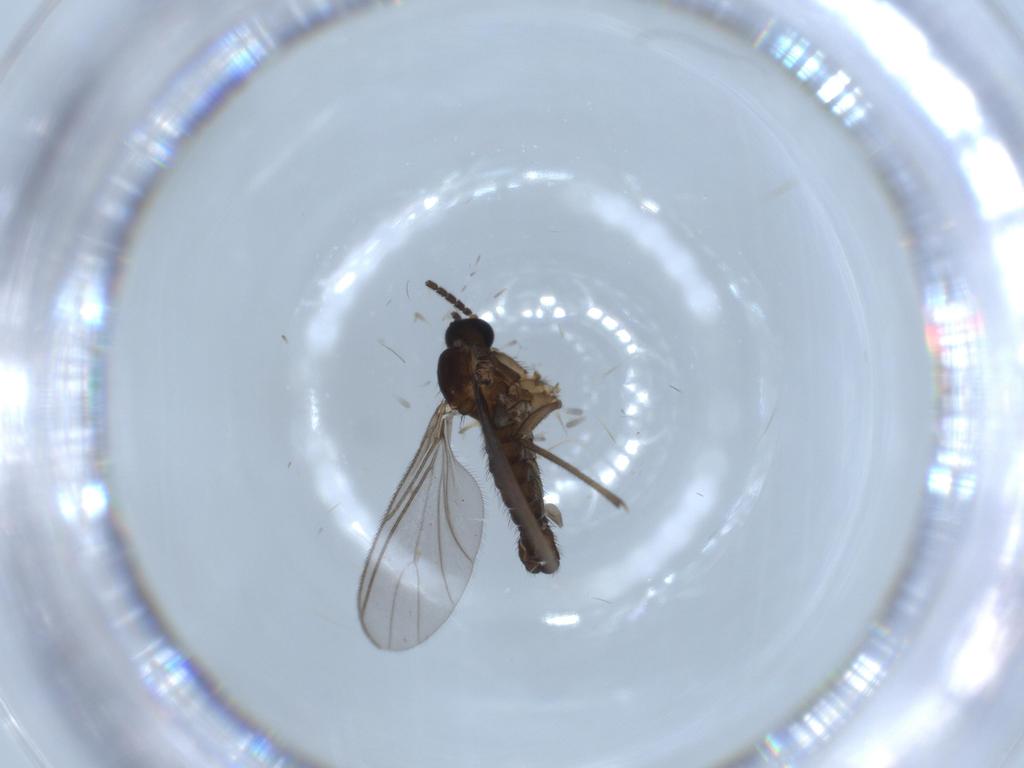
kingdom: Animalia
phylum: Arthropoda
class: Insecta
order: Diptera
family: Sciaridae
